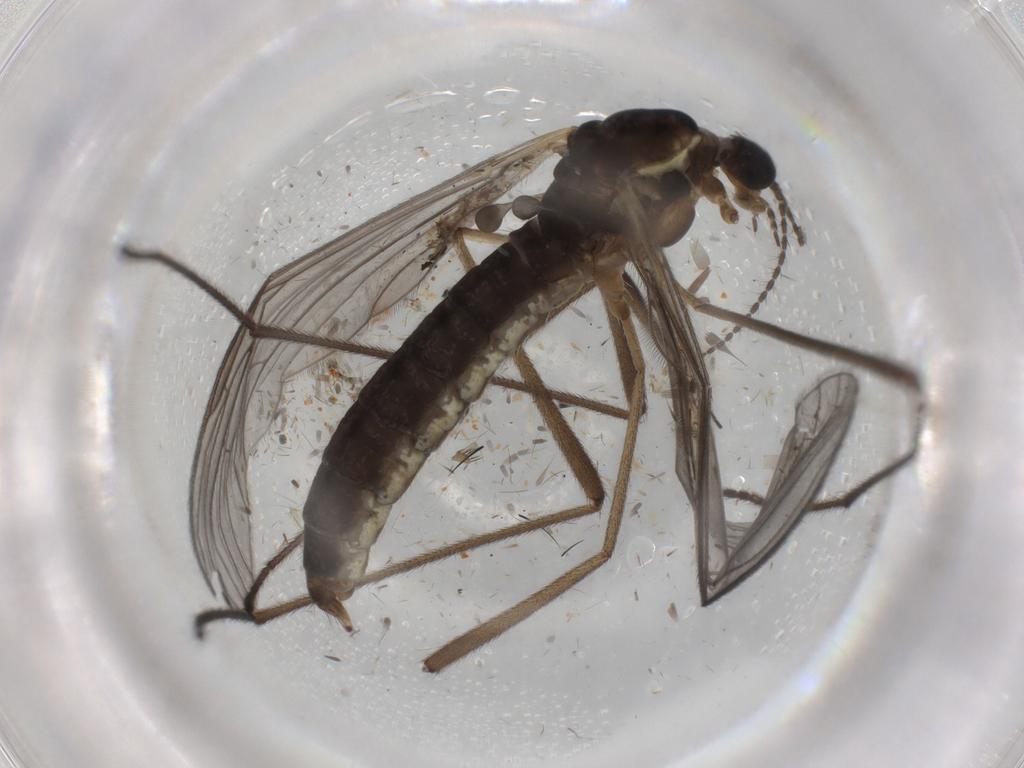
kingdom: Animalia
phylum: Arthropoda
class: Insecta
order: Diptera
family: Limoniidae
